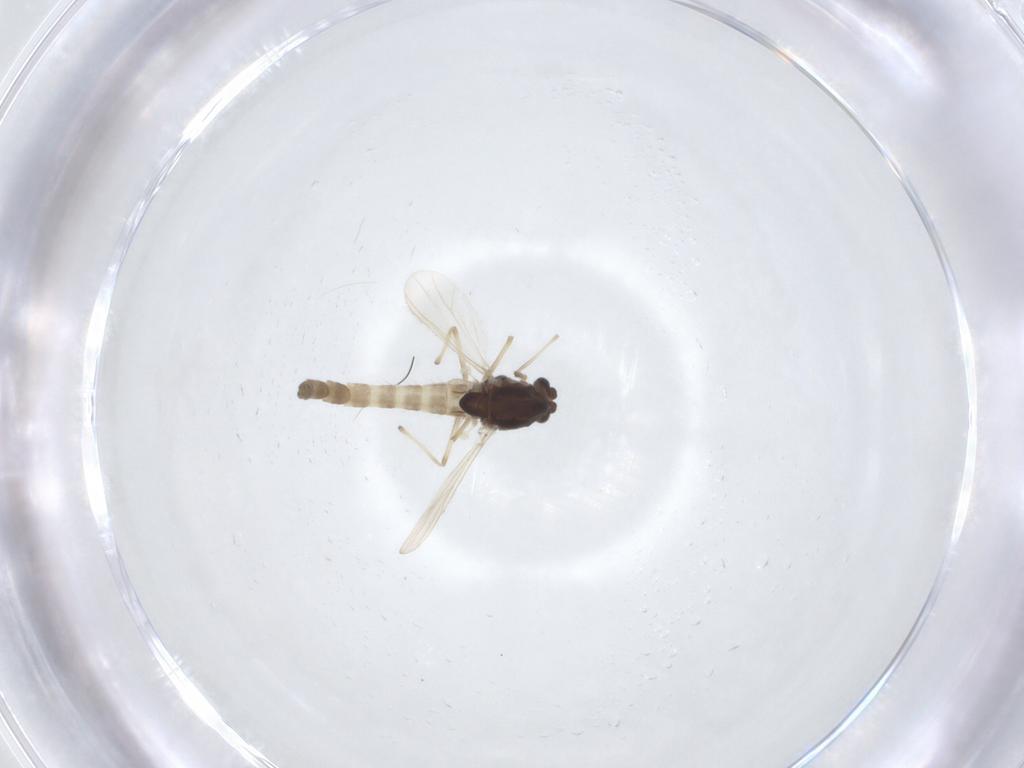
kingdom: Animalia
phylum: Arthropoda
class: Insecta
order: Diptera
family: Chironomidae
